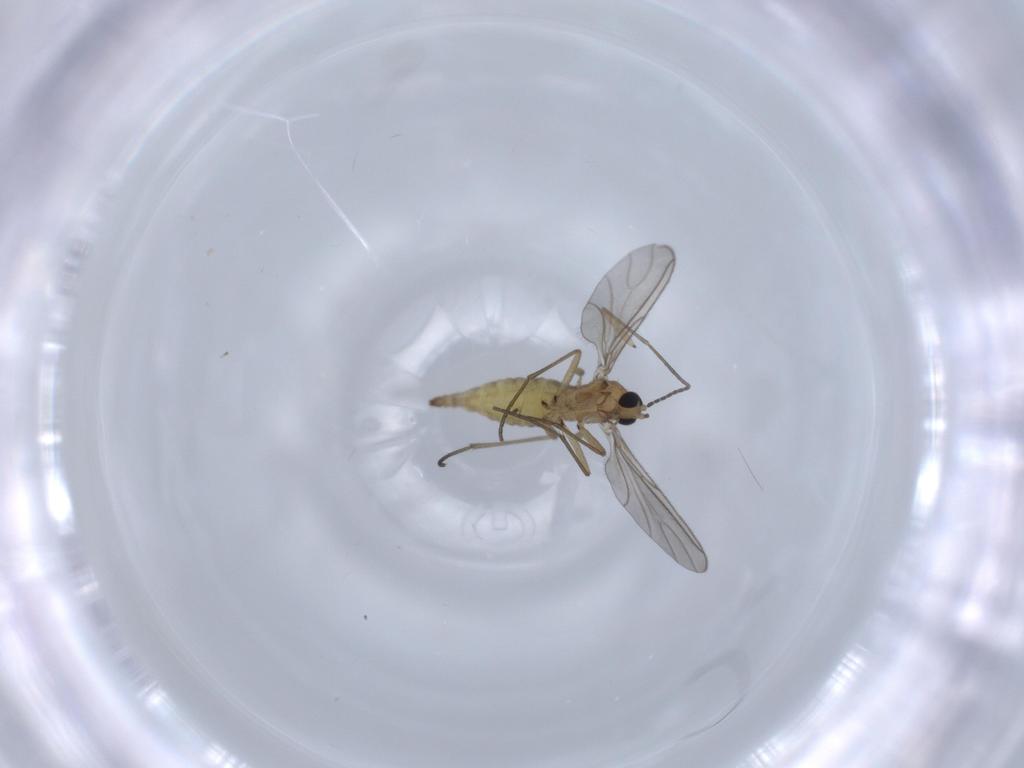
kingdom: Animalia
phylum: Arthropoda
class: Insecta
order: Diptera
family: Sciaridae
